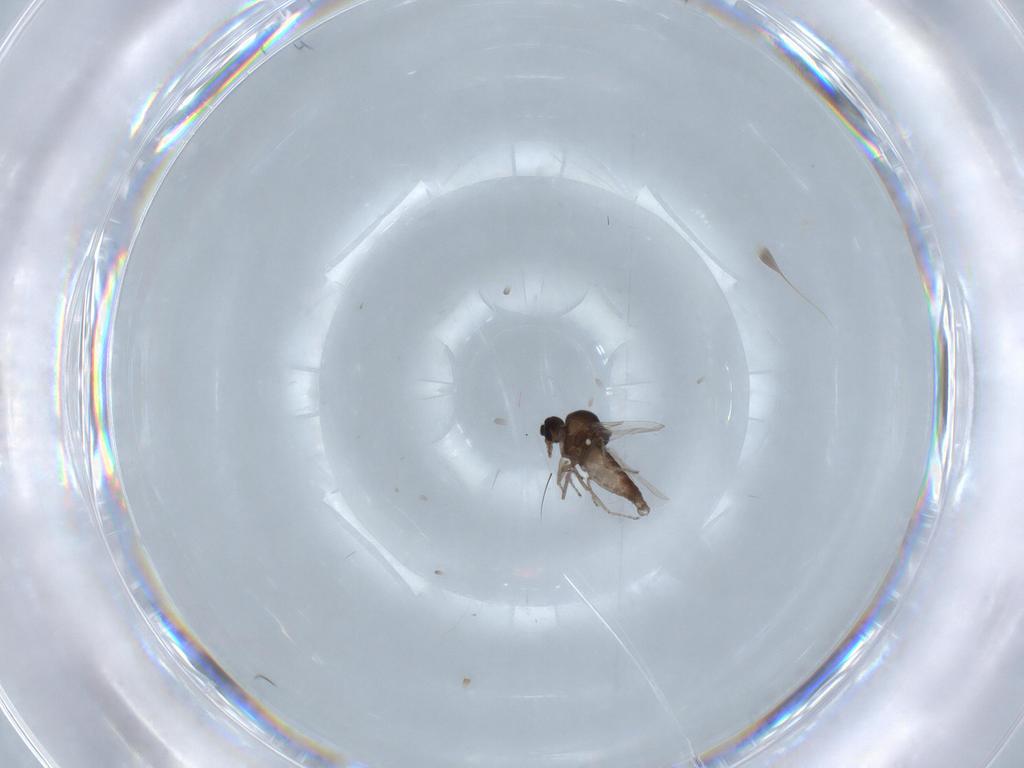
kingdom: Animalia
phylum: Arthropoda
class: Insecta
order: Diptera
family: Ceratopogonidae
